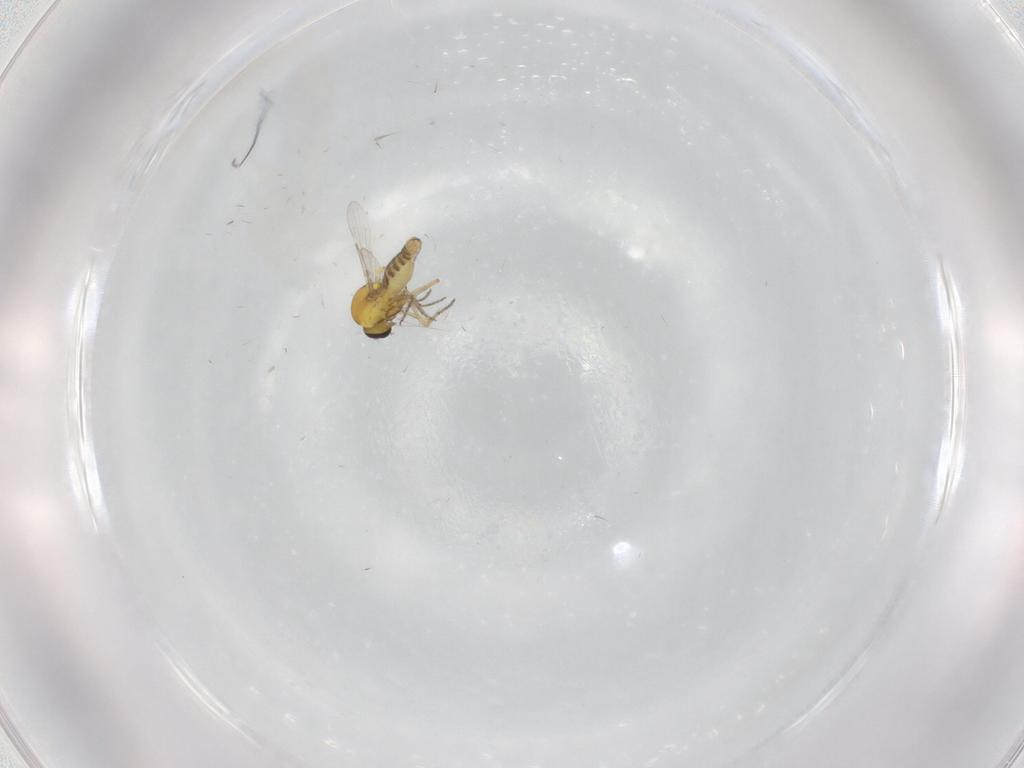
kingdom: Animalia
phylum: Arthropoda
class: Insecta
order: Diptera
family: Ceratopogonidae
